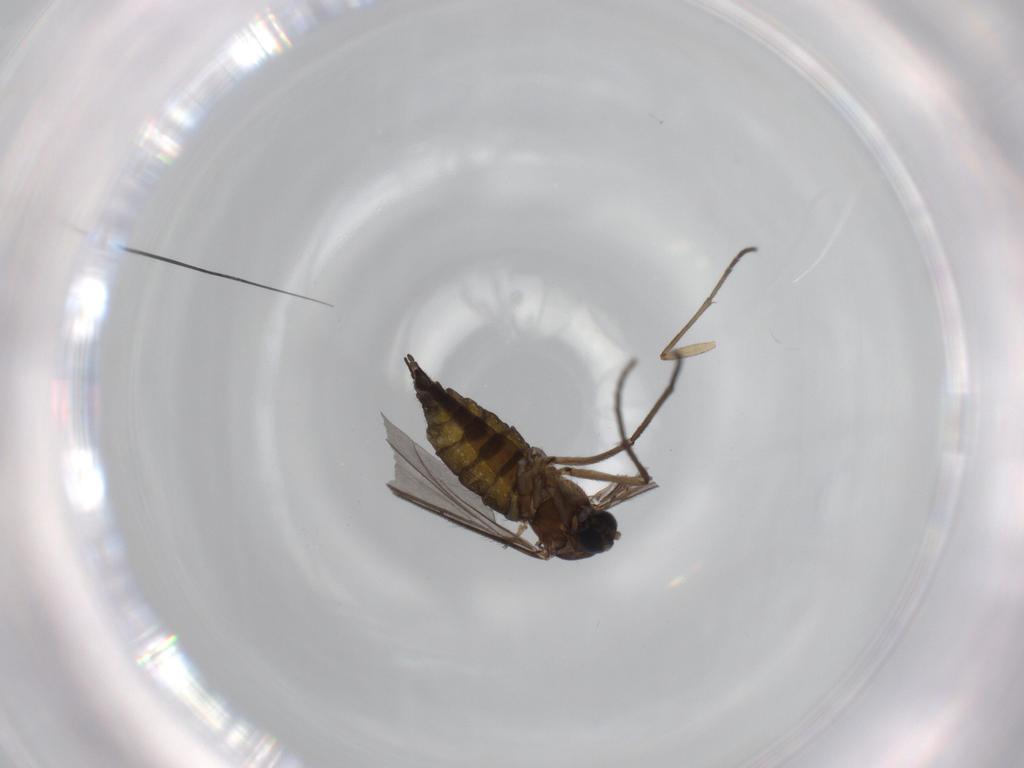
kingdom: Animalia
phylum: Arthropoda
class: Insecta
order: Diptera
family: Sciaridae
